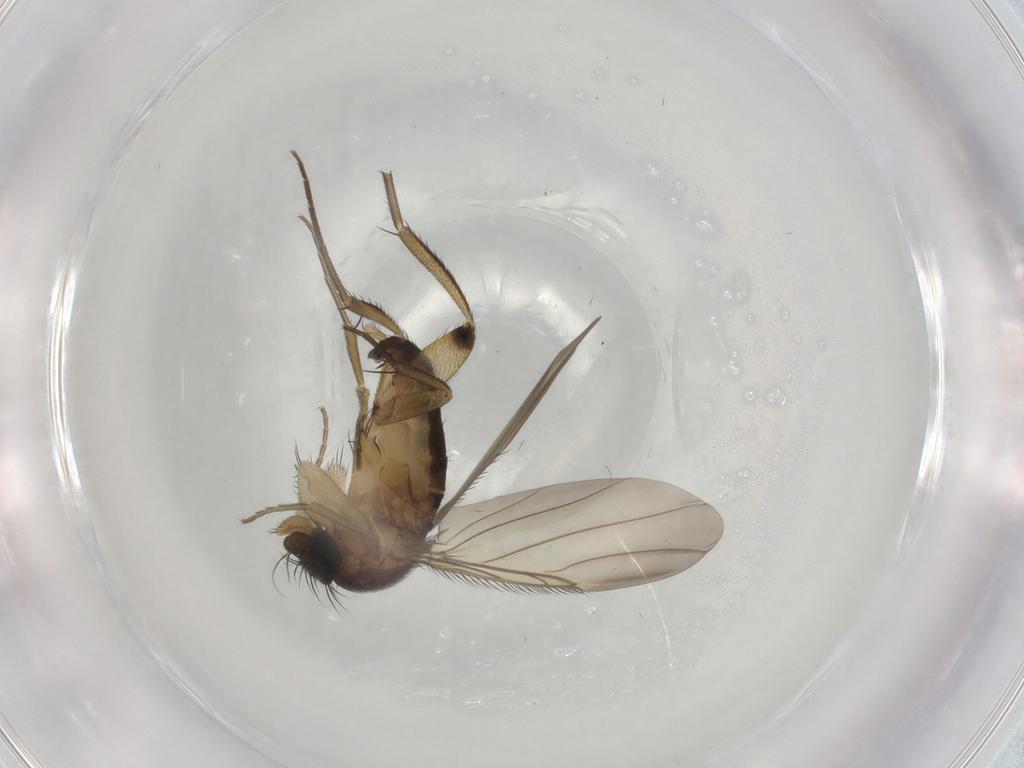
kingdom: Animalia
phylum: Arthropoda
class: Insecta
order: Diptera
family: Phoridae
